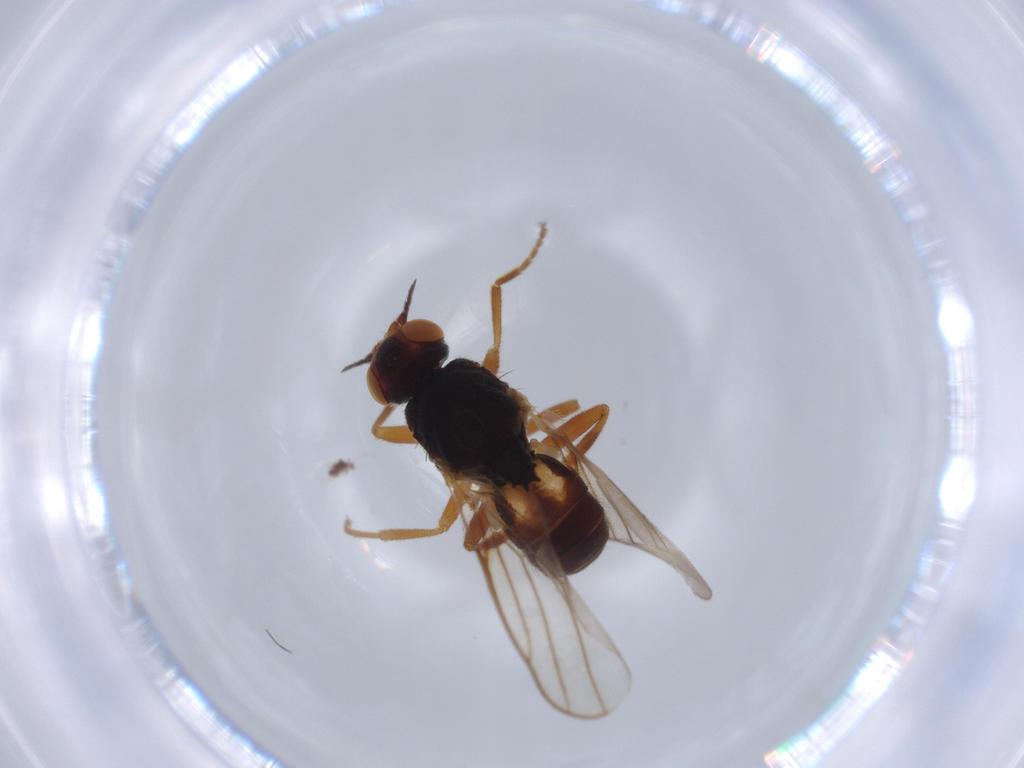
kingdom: Animalia
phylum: Arthropoda
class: Insecta
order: Diptera
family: Chloropidae
